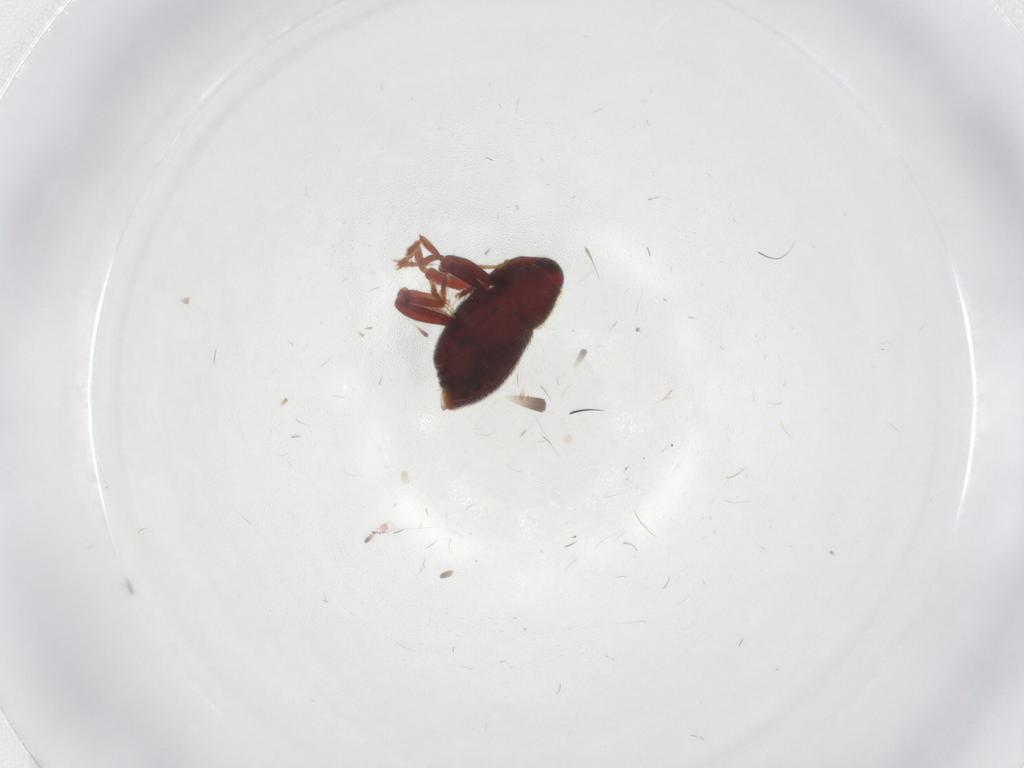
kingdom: Animalia
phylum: Arthropoda
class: Insecta
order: Coleoptera
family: Curculionidae
